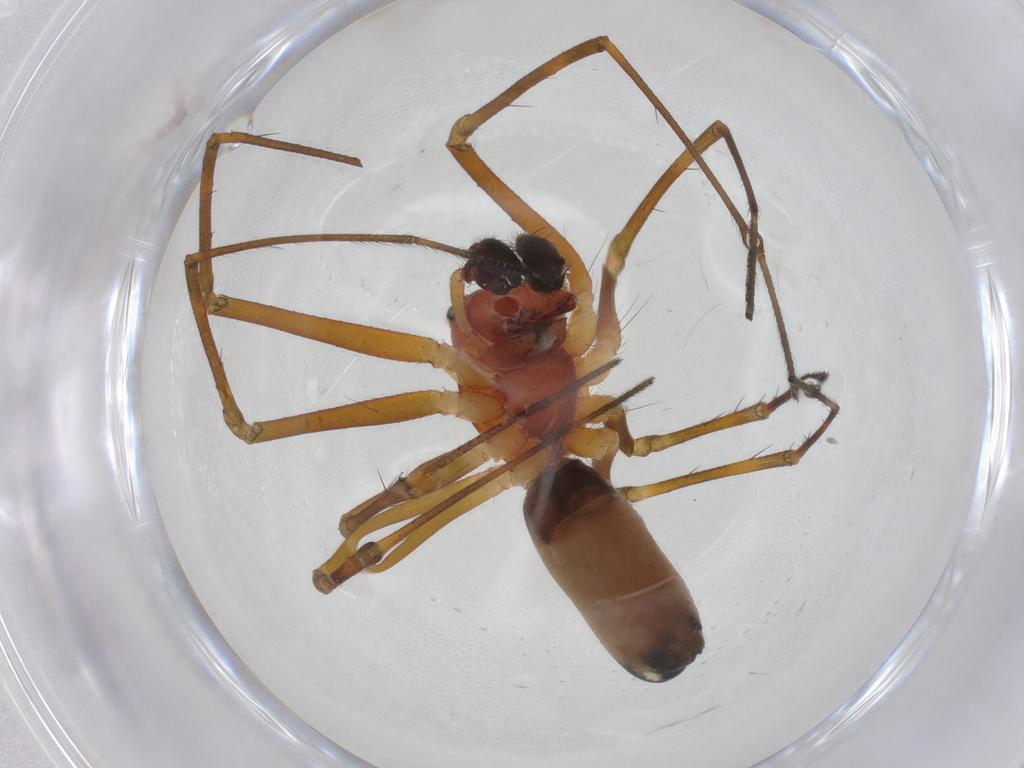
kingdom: Animalia
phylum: Arthropoda
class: Arachnida
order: Araneae
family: Linyphiidae
